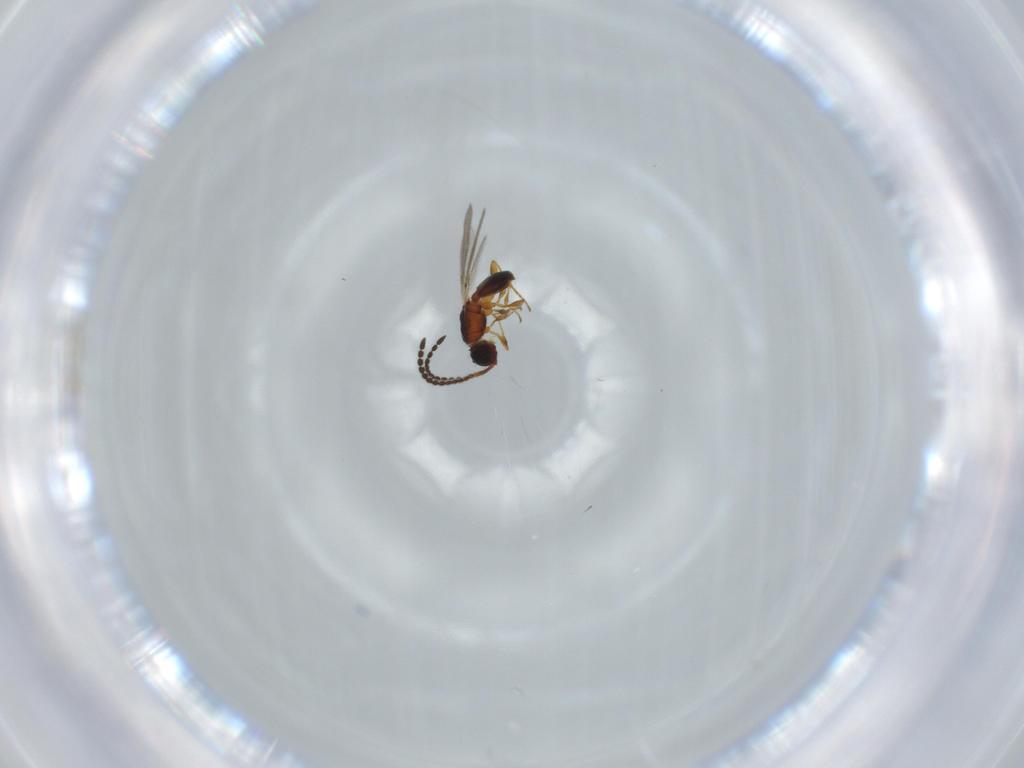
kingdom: Animalia
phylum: Arthropoda
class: Insecta
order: Hymenoptera
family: Diapriidae
